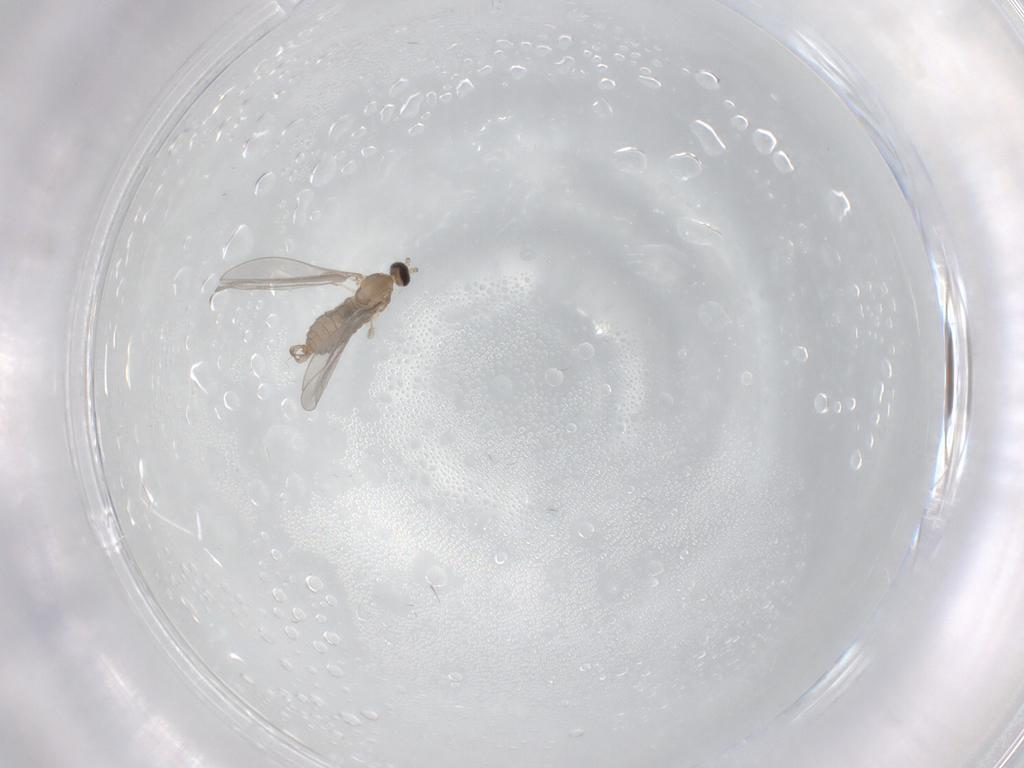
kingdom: Animalia
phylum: Arthropoda
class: Insecta
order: Diptera
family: Cecidomyiidae
